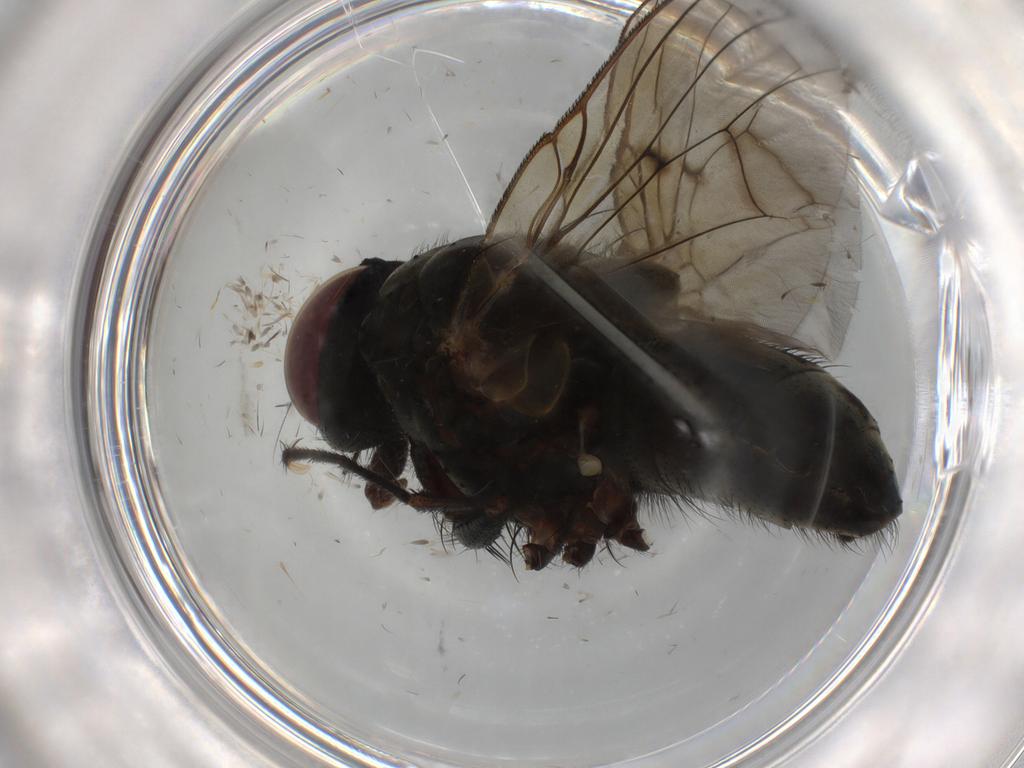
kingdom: Animalia
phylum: Arthropoda
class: Insecta
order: Diptera
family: Muscidae
